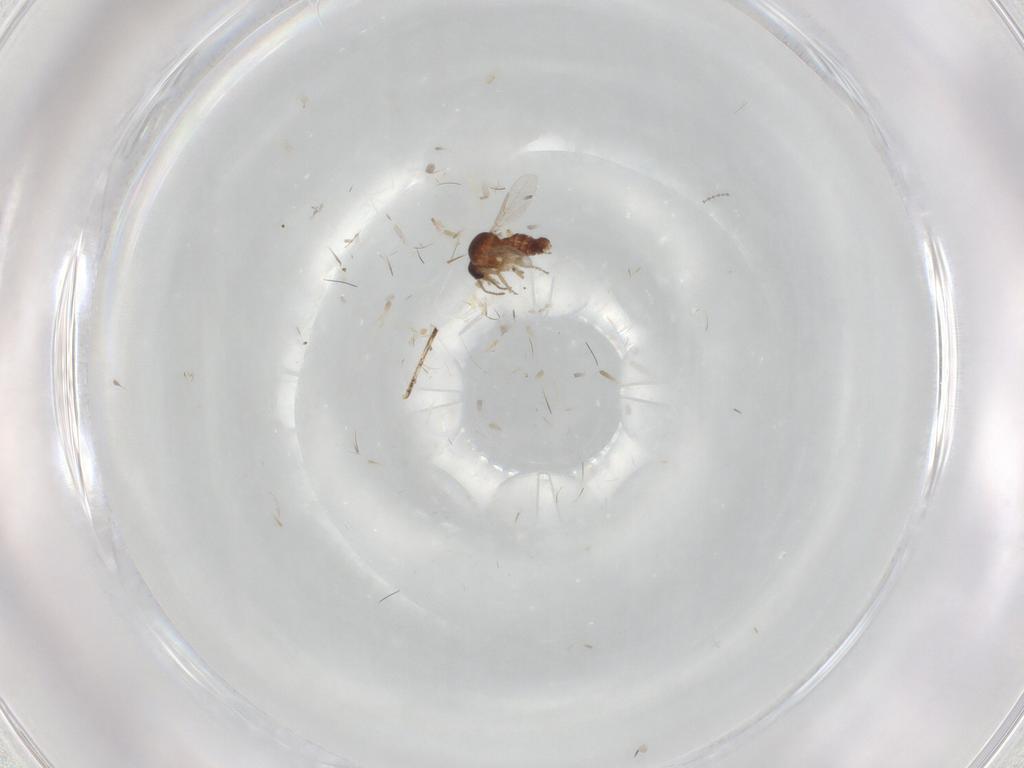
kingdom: Animalia
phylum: Arthropoda
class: Insecta
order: Diptera
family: Ceratopogonidae
